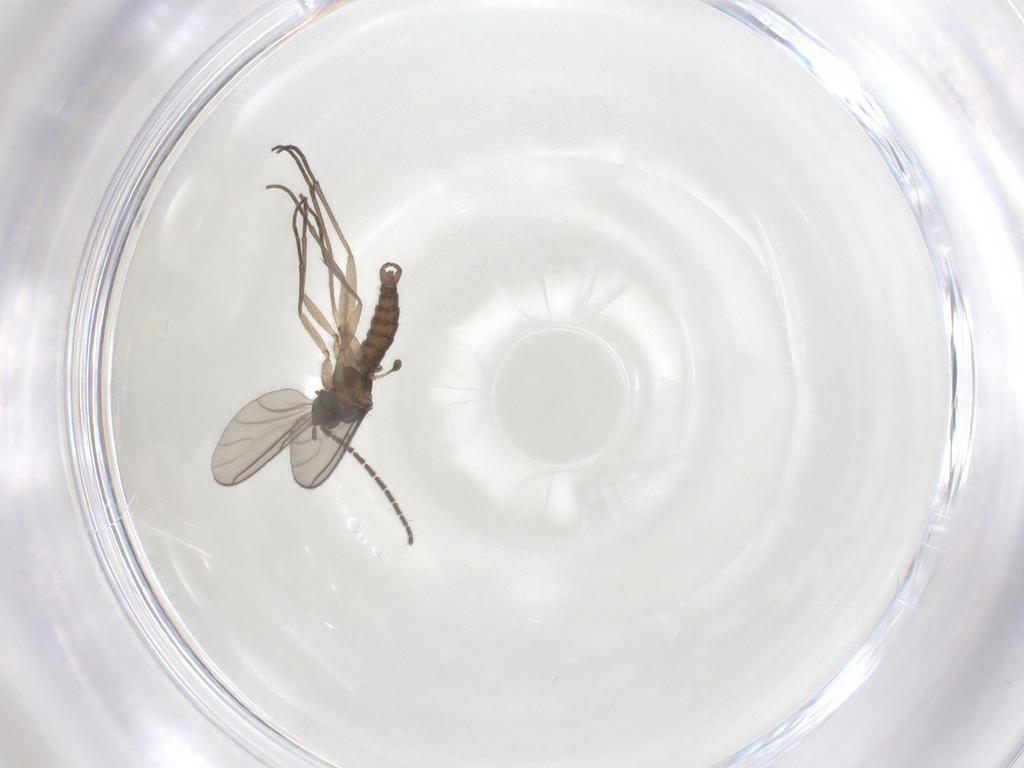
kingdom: Animalia
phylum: Arthropoda
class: Insecta
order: Diptera
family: Sciaridae
